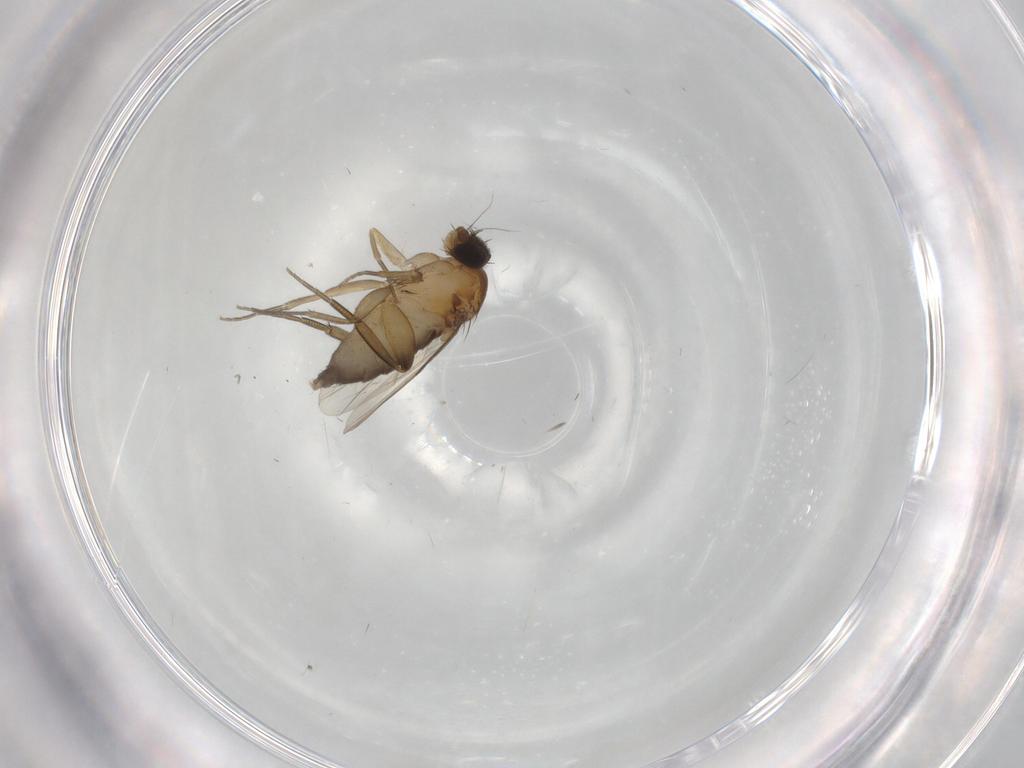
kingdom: Animalia
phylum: Arthropoda
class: Insecta
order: Diptera
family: Phoridae
